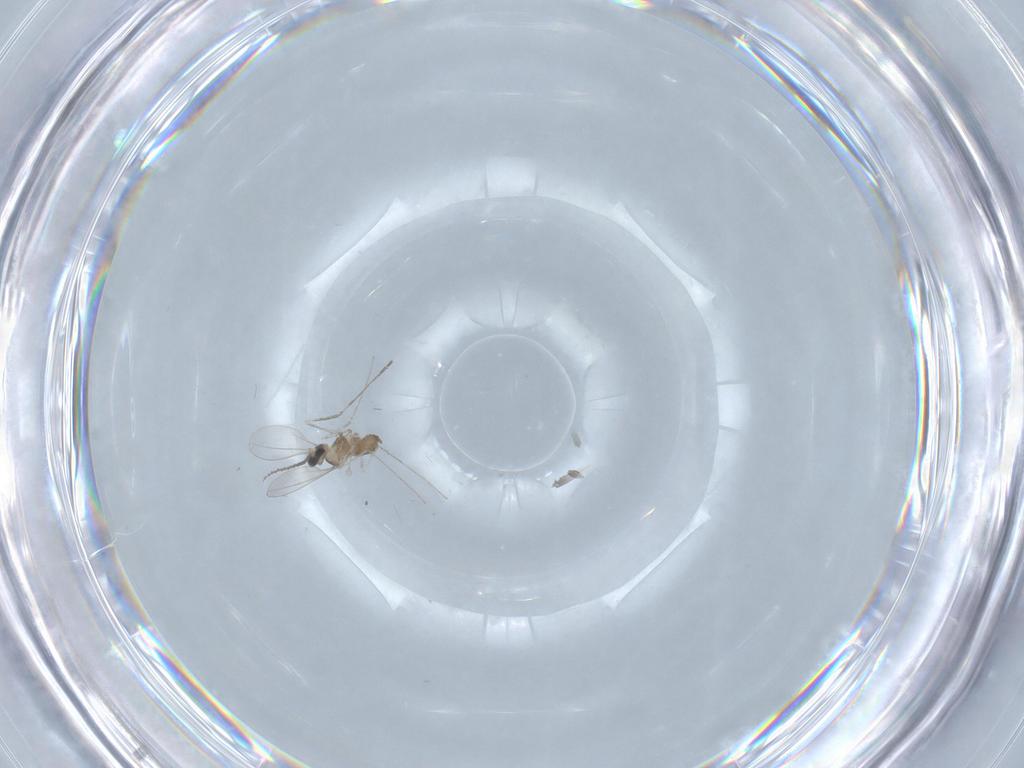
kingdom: Animalia
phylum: Arthropoda
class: Insecta
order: Diptera
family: Cecidomyiidae
